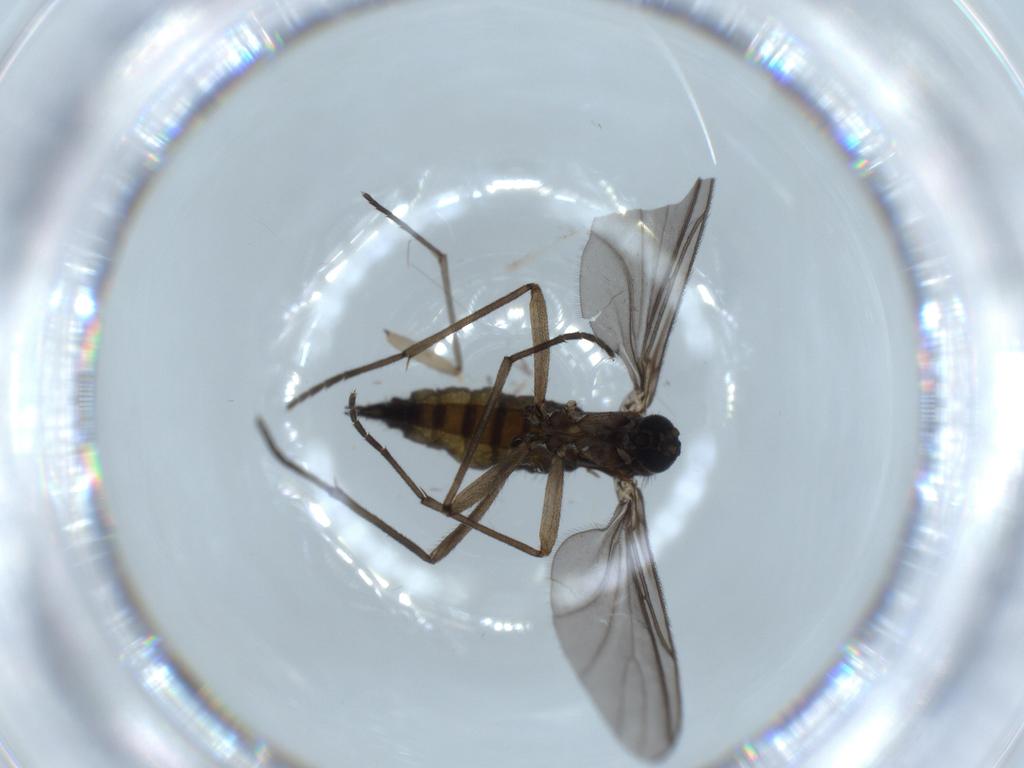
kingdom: Animalia
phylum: Arthropoda
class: Insecta
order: Diptera
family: Sciaridae
